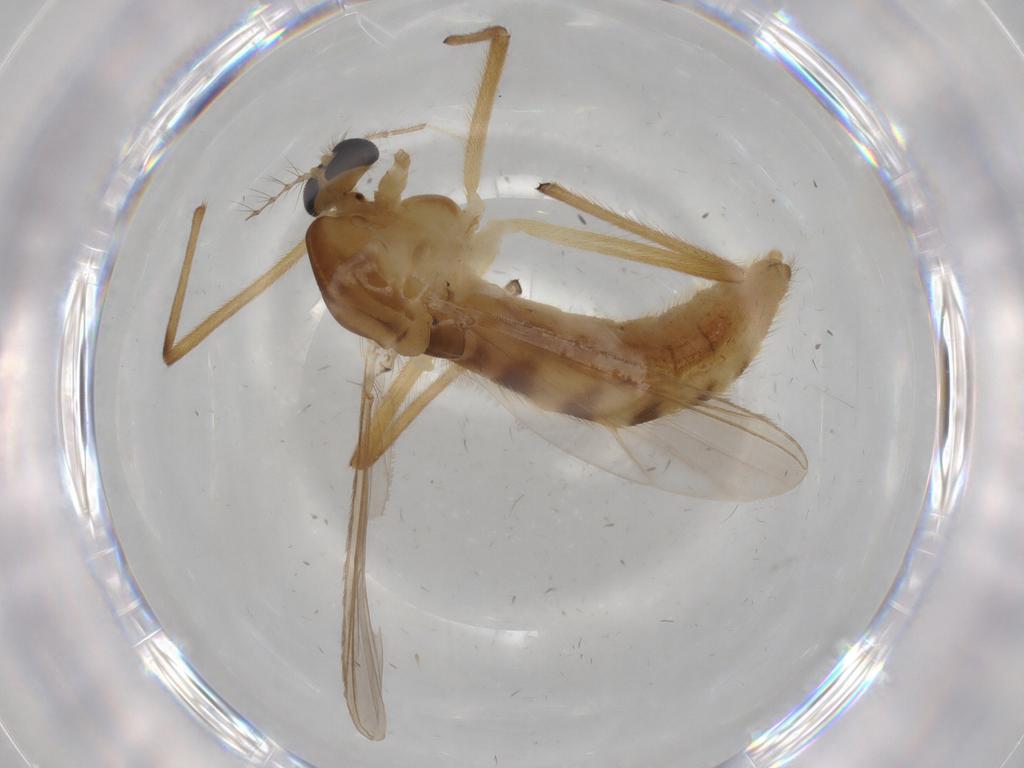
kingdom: Animalia
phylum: Arthropoda
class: Insecta
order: Diptera
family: Chironomidae
